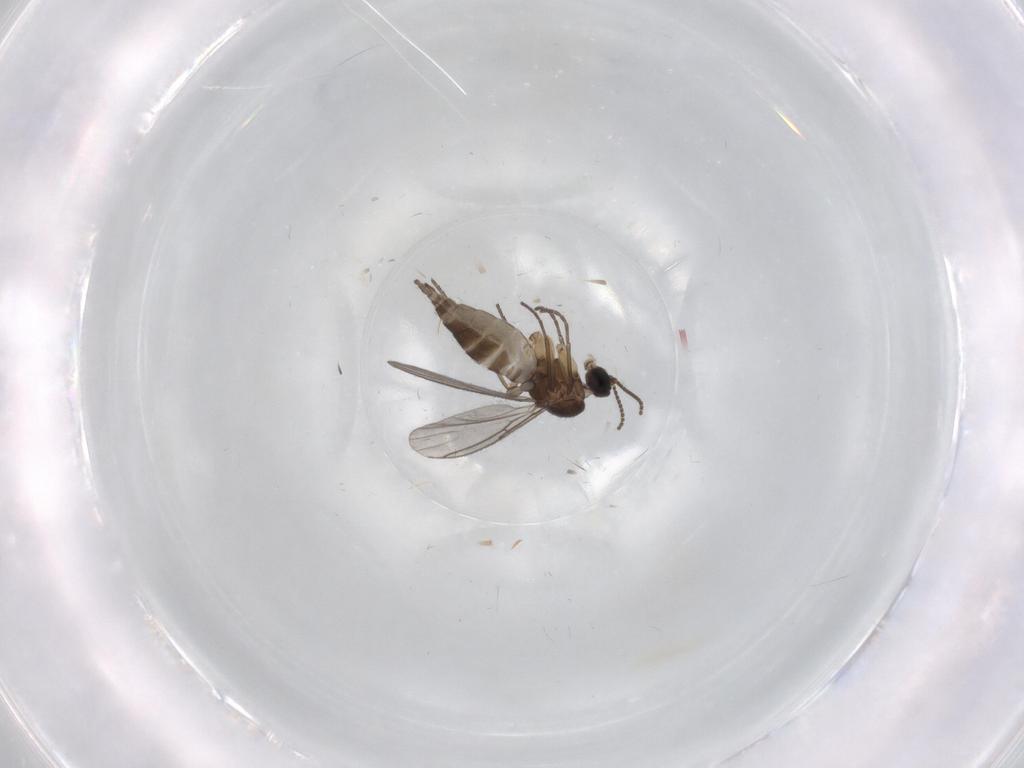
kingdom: Animalia
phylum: Arthropoda
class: Insecta
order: Diptera
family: Sciaridae
